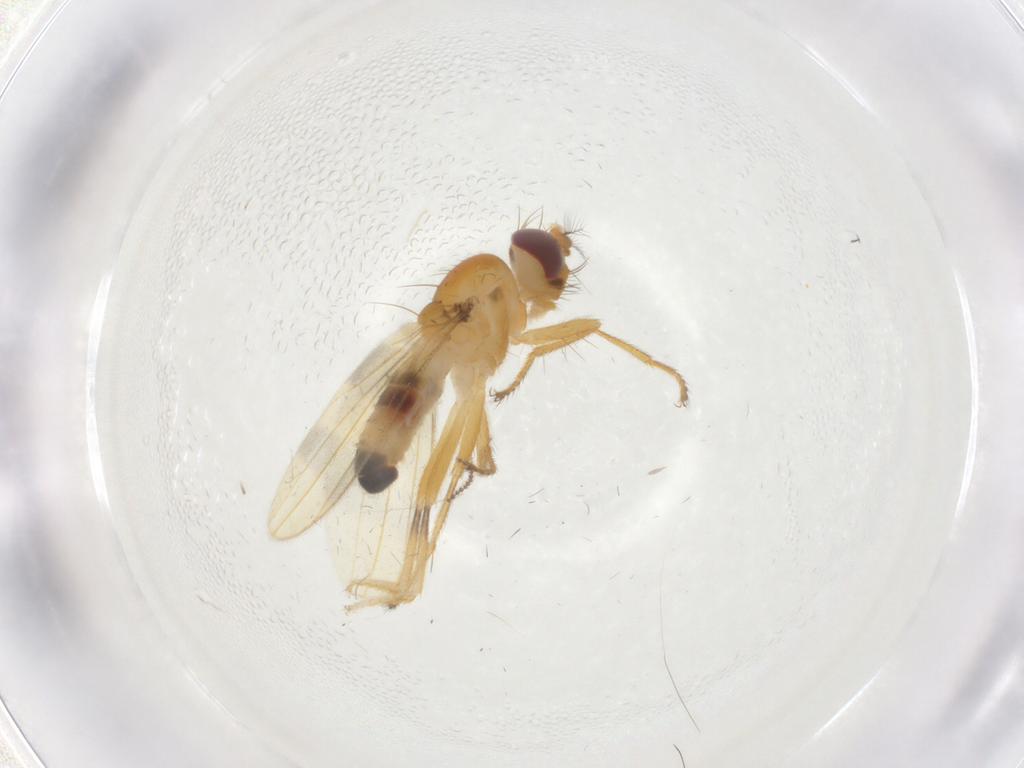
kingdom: Animalia
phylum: Arthropoda
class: Insecta
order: Diptera
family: Periscelididae
